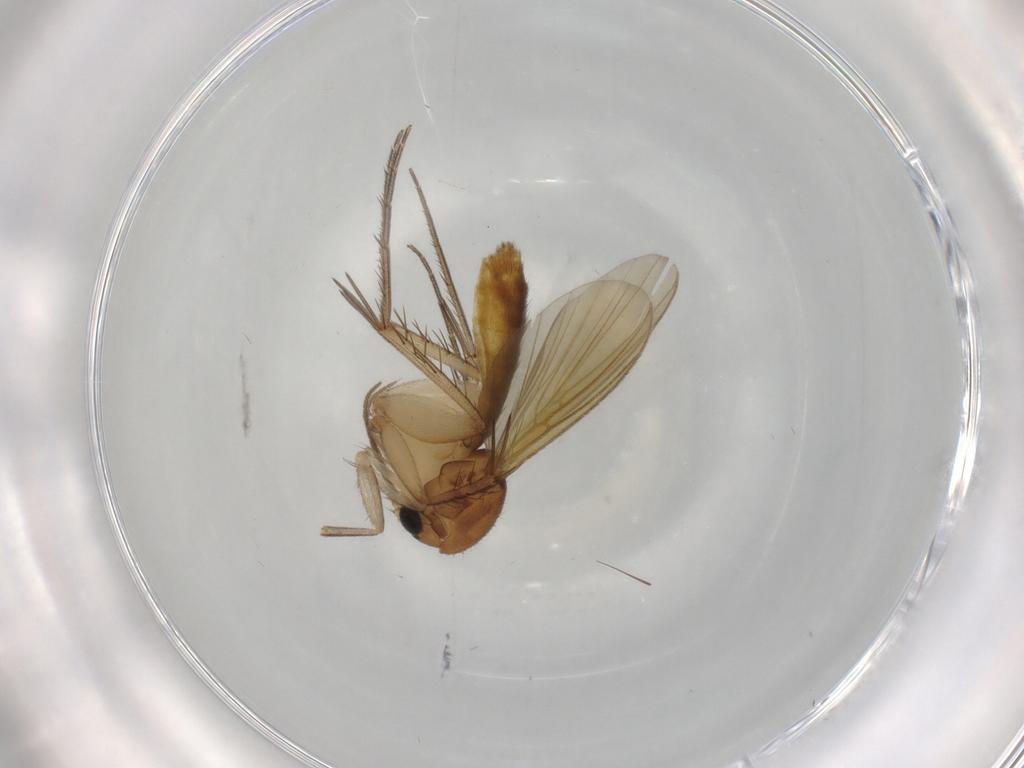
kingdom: Animalia
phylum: Arthropoda
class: Insecta
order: Diptera
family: Mycetophilidae
